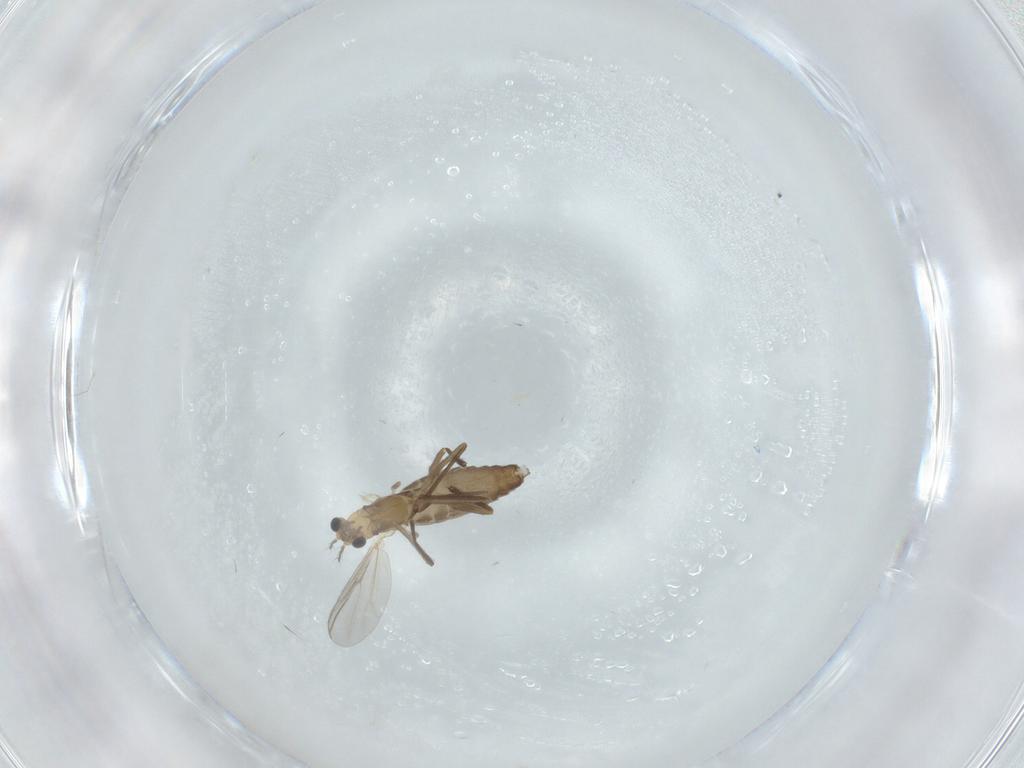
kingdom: Animalia
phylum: Arthropoda
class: Insecta
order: Diptera
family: Chironomidae
